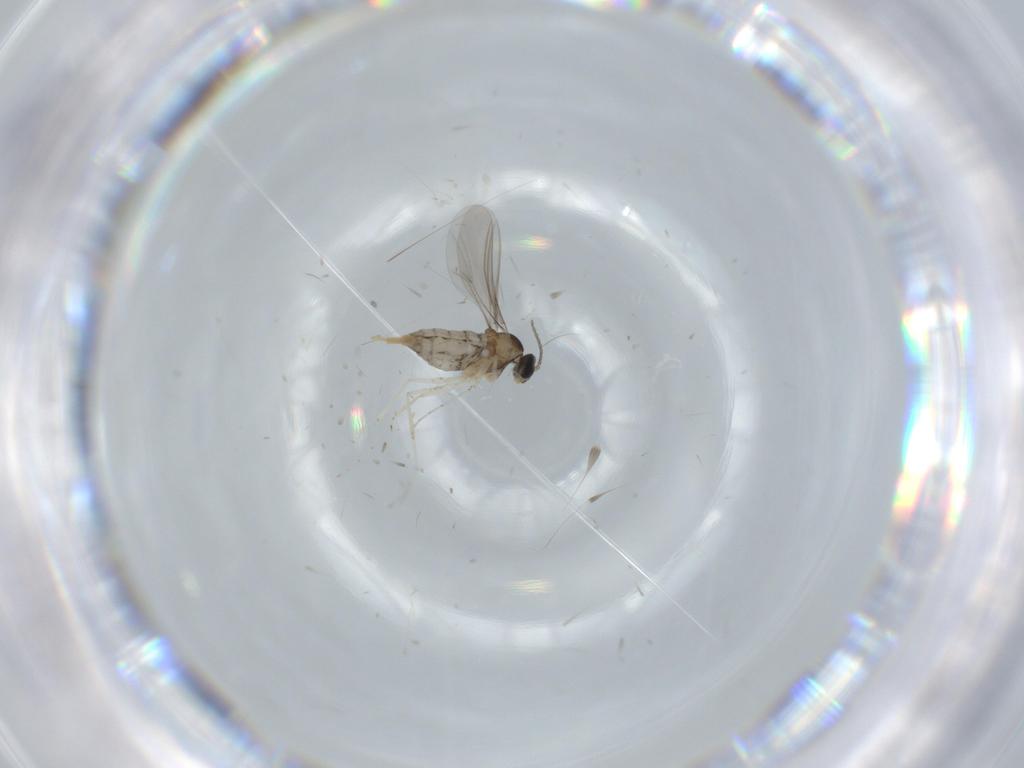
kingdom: Animalia
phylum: Arthropoda
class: Insecta
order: Diptera
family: Cecidomyiidae
